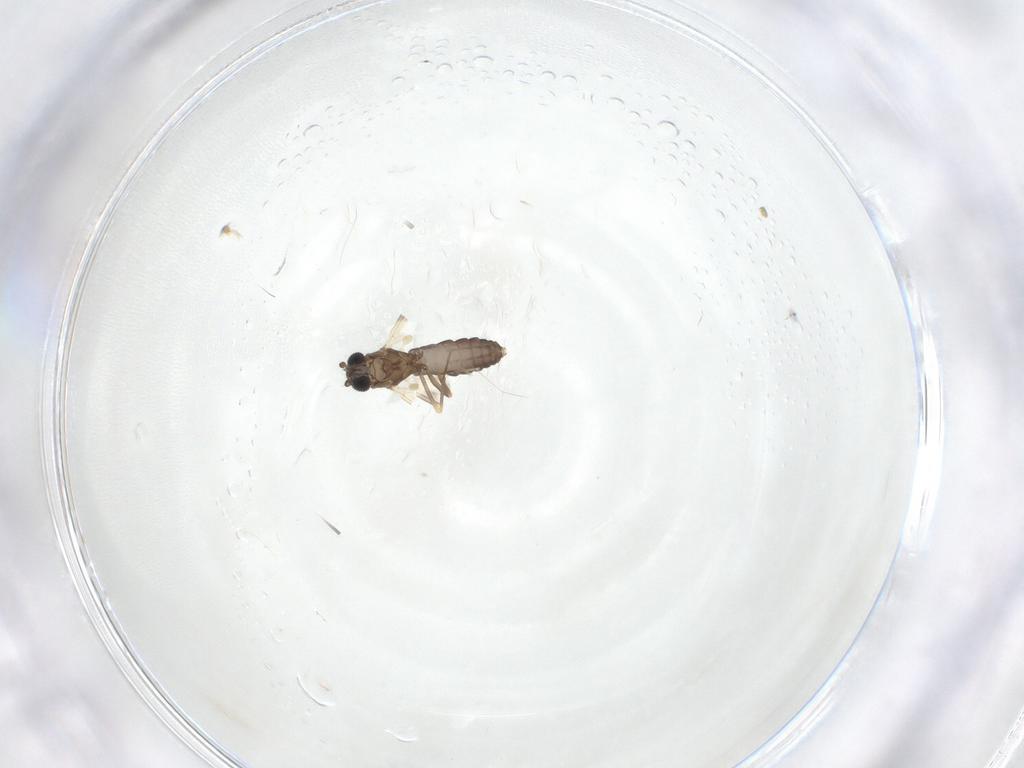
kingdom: Animalia
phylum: Arthropoda
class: Insecta
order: Diptera
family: Ceratopogonidae
